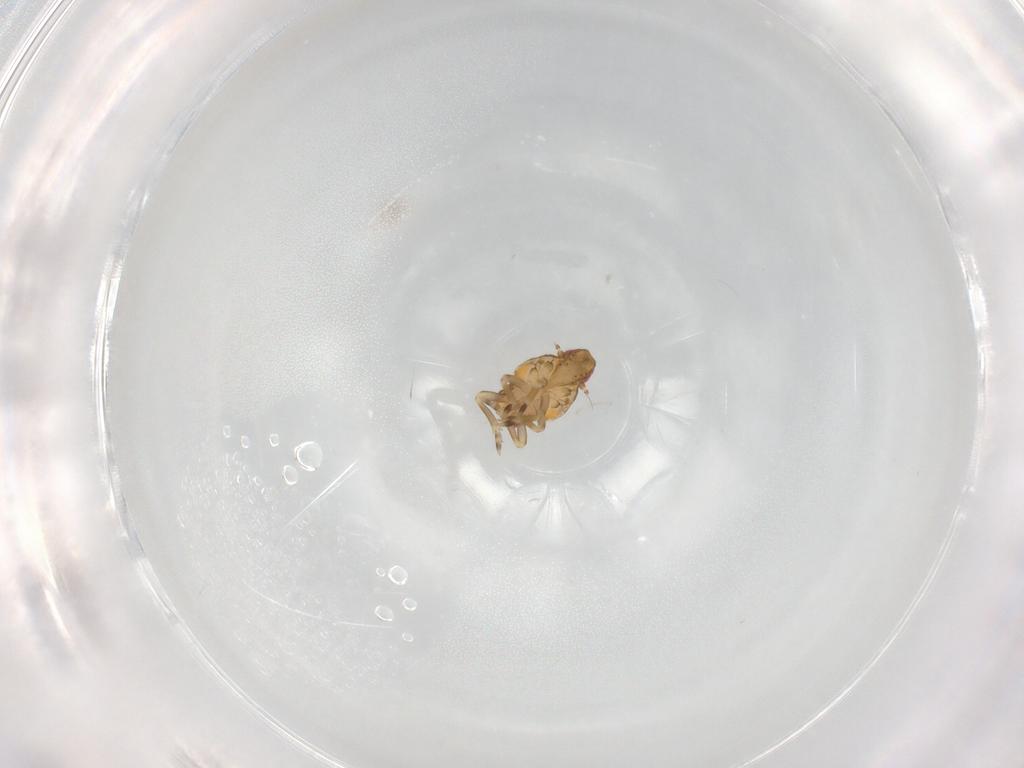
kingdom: Animalia
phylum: Arthropoda
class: Insecta
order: Hemiptera
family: Flatidae
